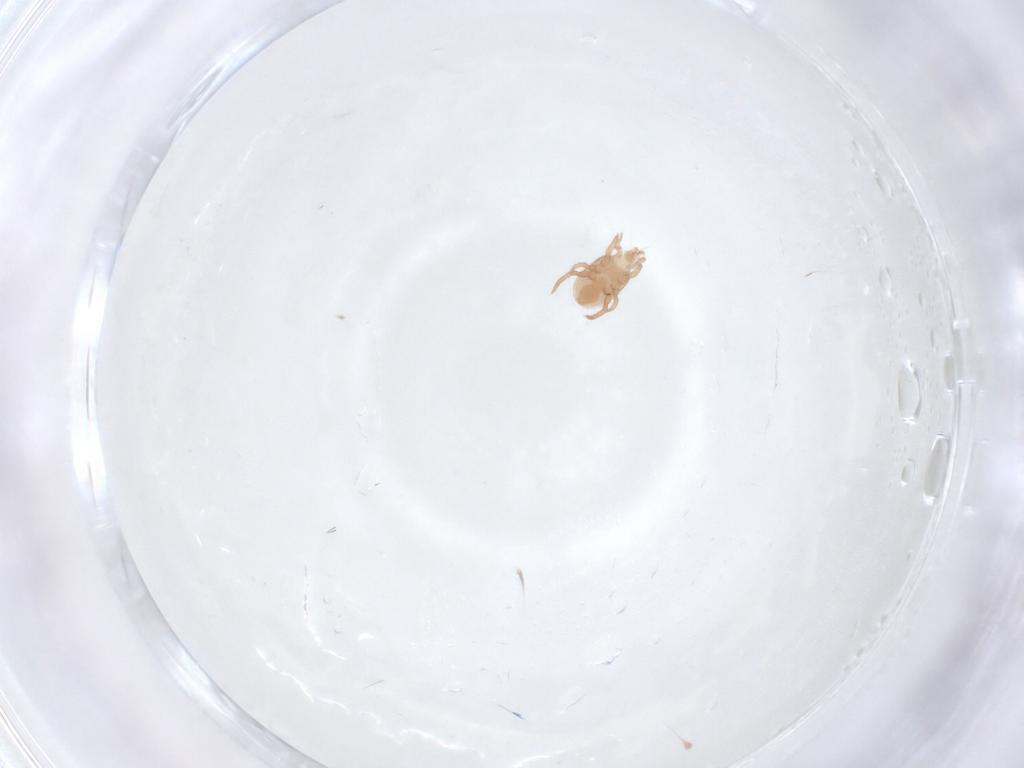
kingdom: Animalia
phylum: Arthropoda
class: Arachnida
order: Mesostigmata
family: Macrochelidae
